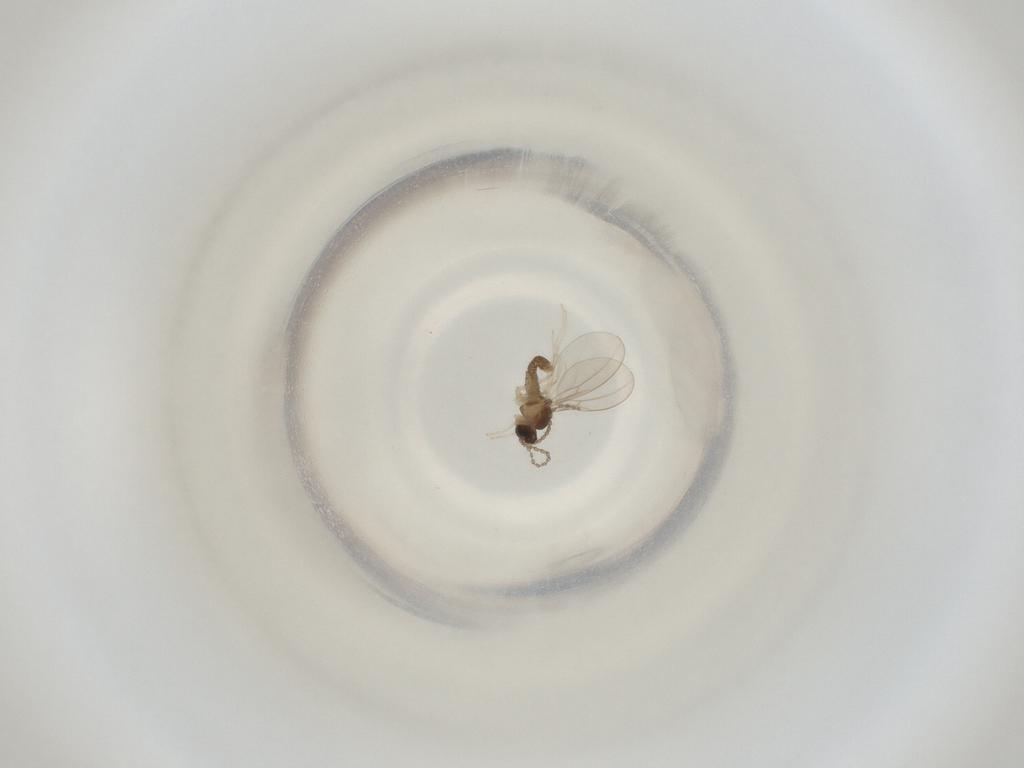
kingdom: Animalia
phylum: Arthropoda
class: Insecta
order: Diptera
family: Cecidomyiidae
